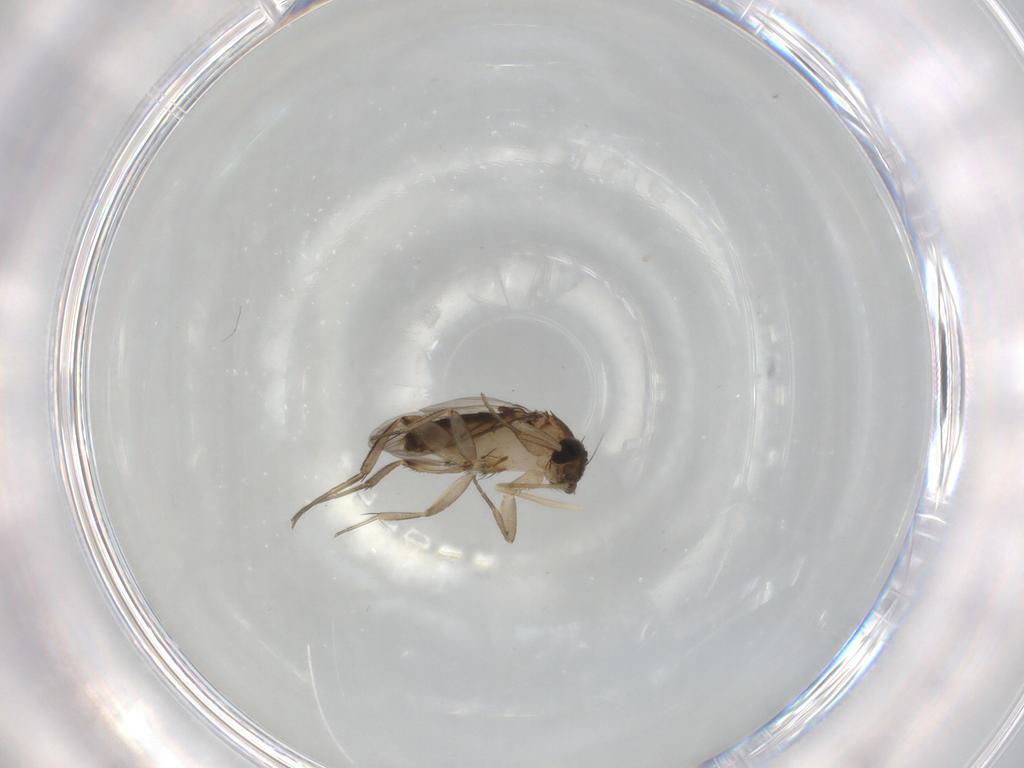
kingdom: Animalia
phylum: Arthropoda
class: Insecta
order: Diptera
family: Phoridae
